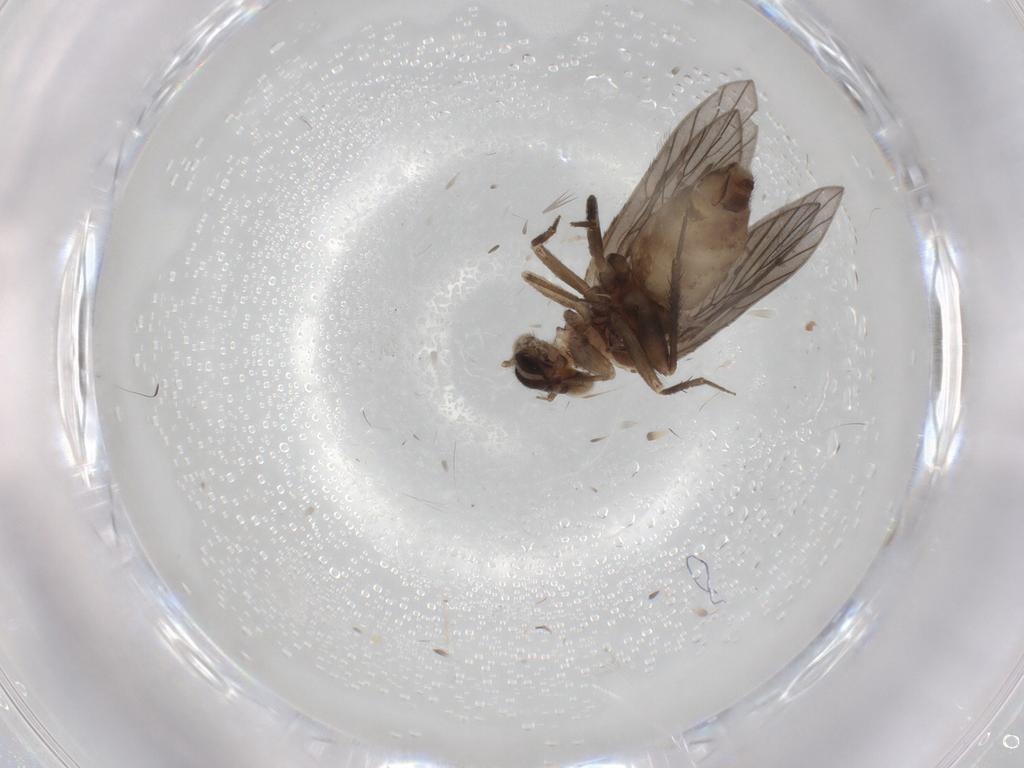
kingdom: Animalia
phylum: Arthropoda
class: Insecta
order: Psocodea
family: Lepidopsocidae
